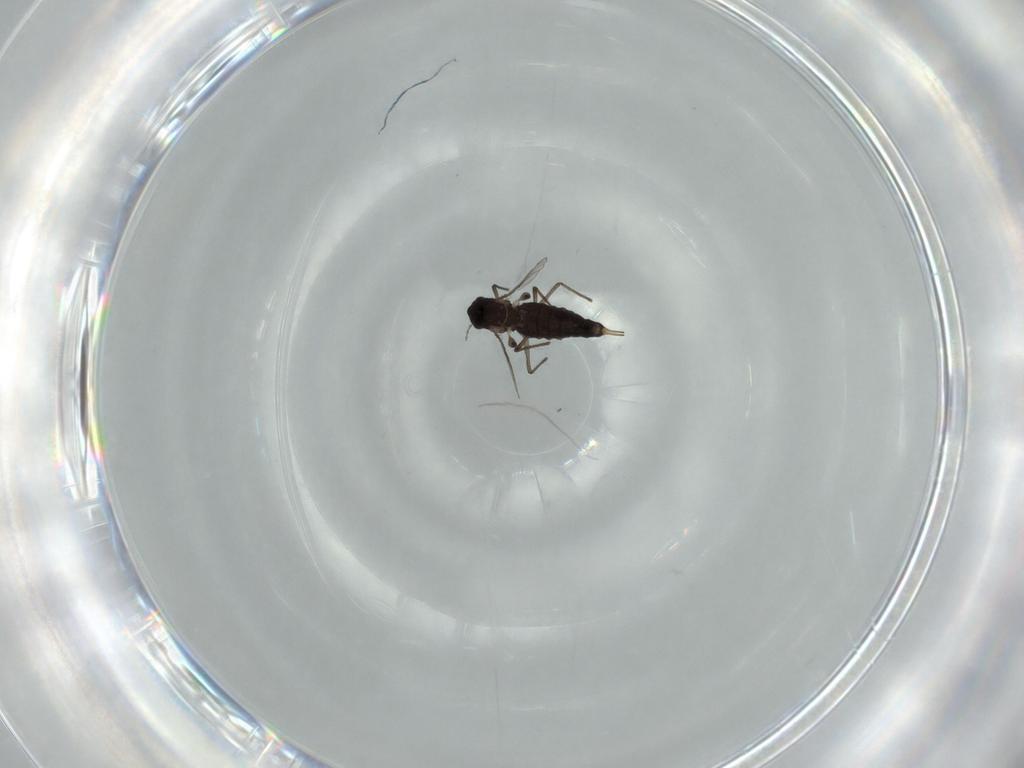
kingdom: Animalia
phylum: Arthropoda
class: Insecta
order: Diptera
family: Chironomidae
